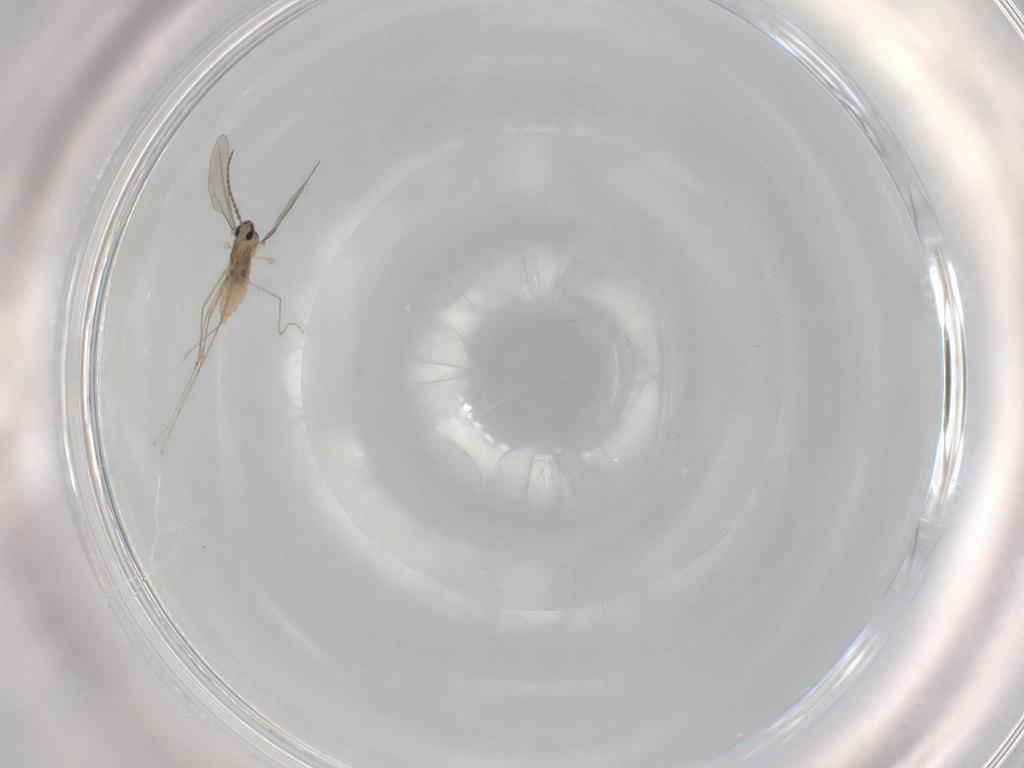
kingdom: Animalia
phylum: Arthropoda
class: Insecta
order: Diptera
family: Cecidomyiidae
